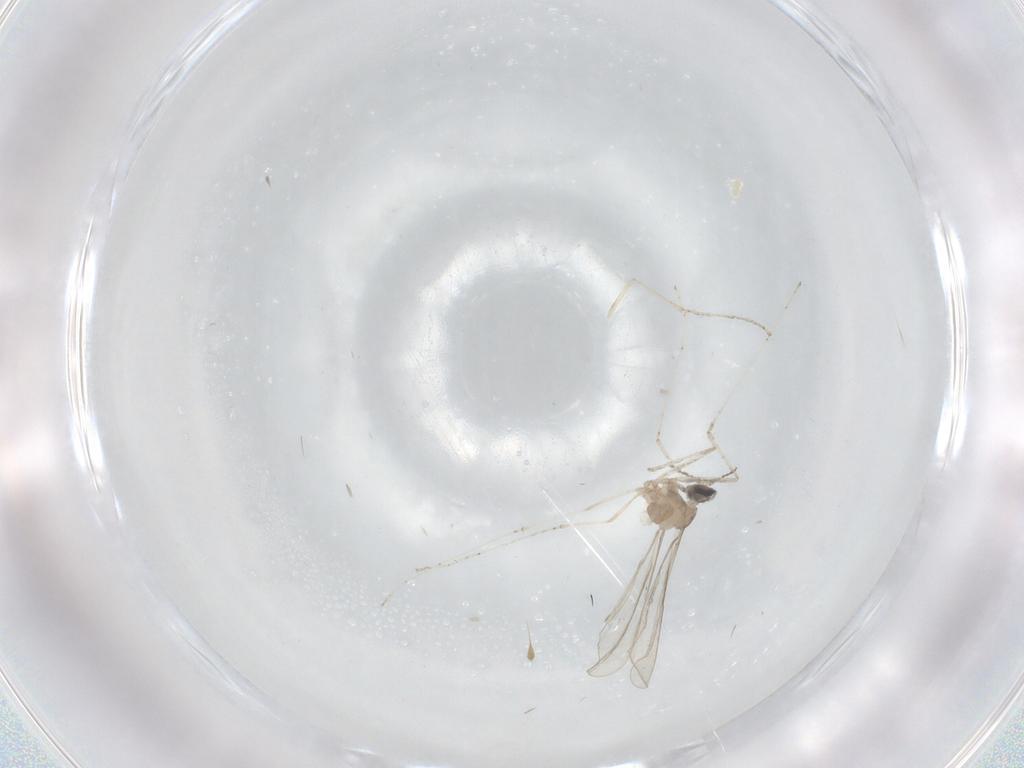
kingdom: Animalia
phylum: Arthropoda
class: Insecta
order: Diptera
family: Cecidomyiidae
